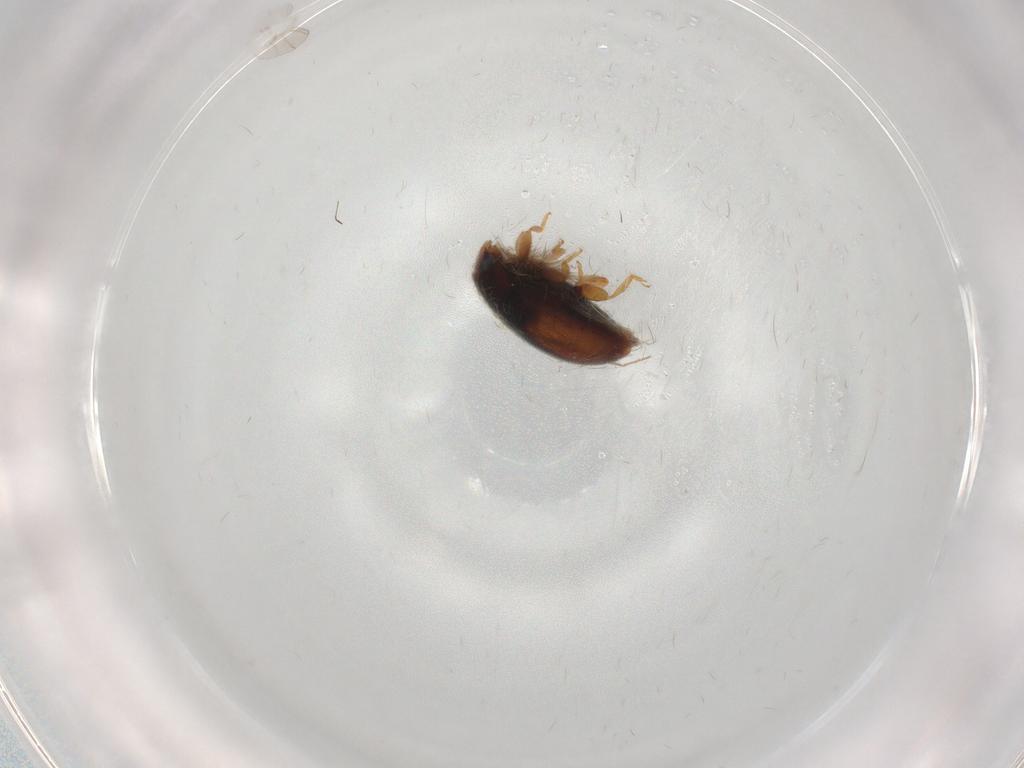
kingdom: Animalia
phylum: Arthropoda
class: Insecta
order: Coleoptera
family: Coccinellidae
